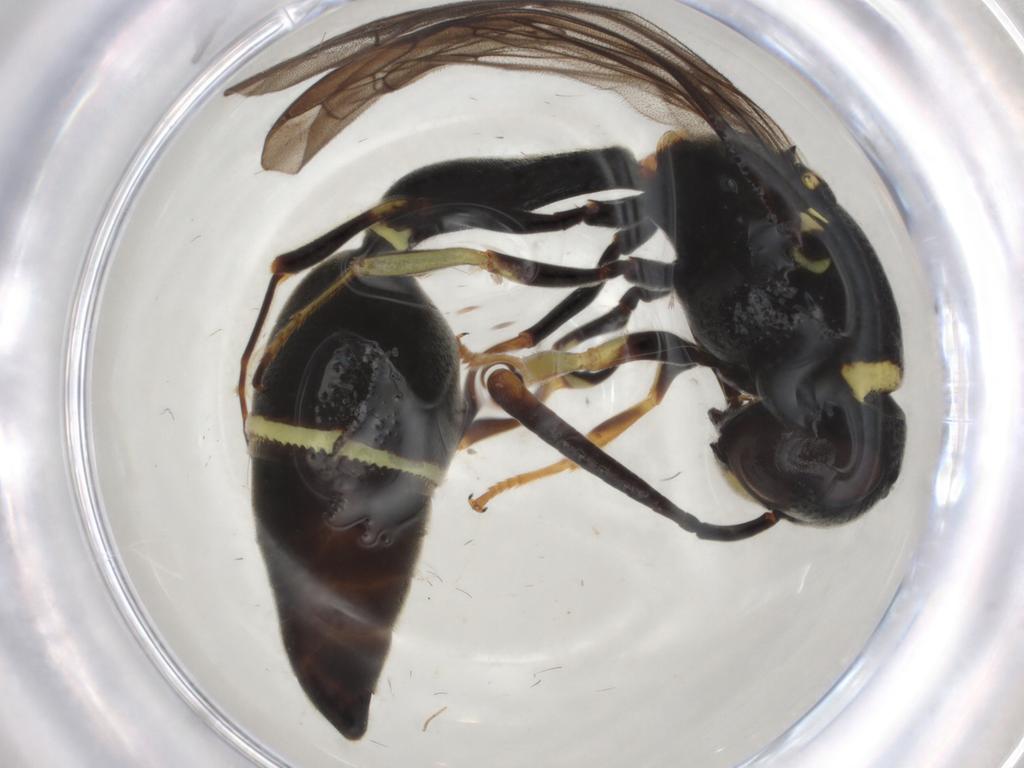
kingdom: Animalia
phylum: Arthropoda
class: Insecta
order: Hymenoptera
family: Vespidae
